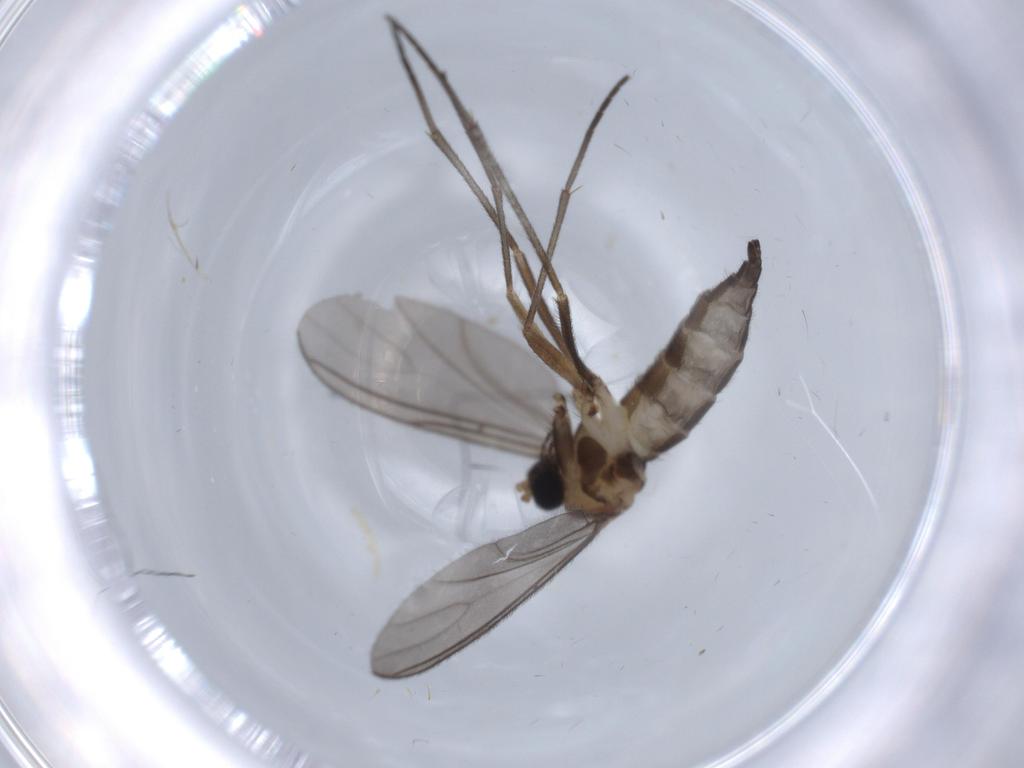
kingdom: Animalia
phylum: Arthropoda
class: Insecta
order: Diptera
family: Sciaridae
